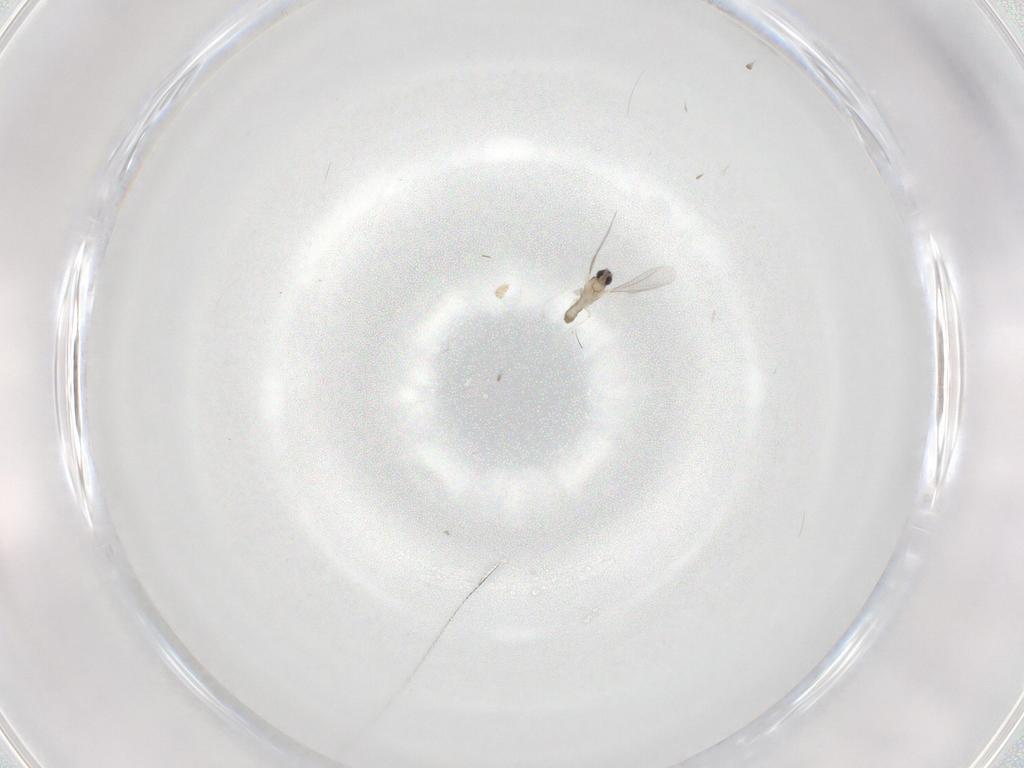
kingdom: Animalia
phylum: Arthropoda
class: Insecta
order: Diptera
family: Cecidomyiidae
